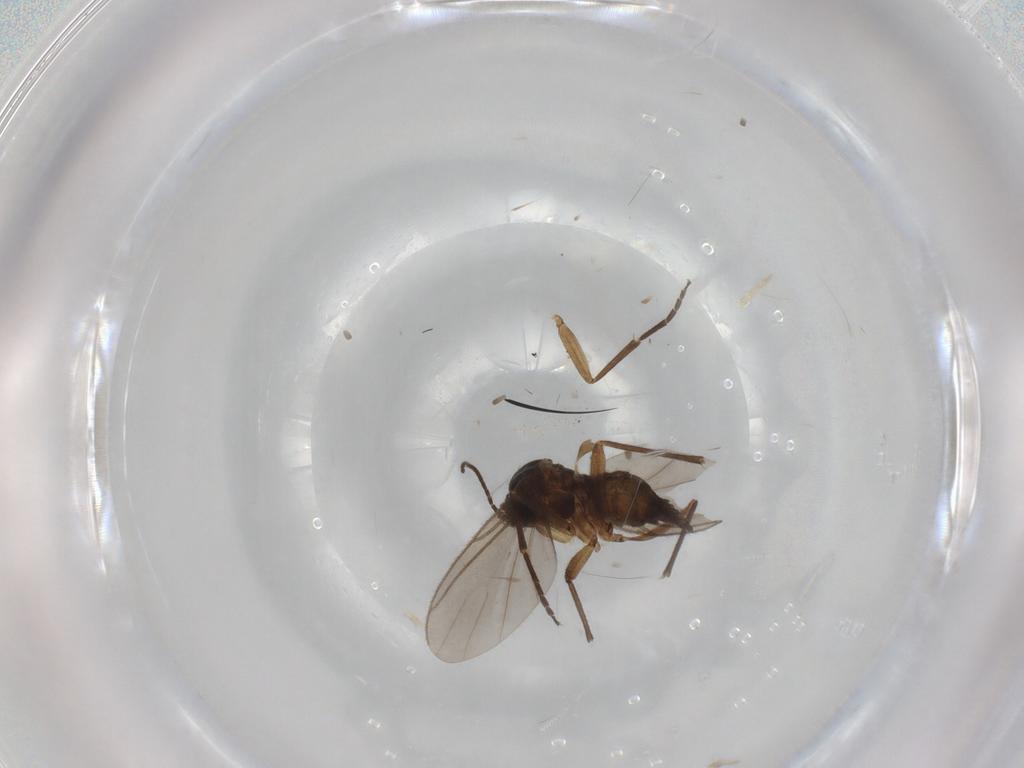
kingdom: Animalia
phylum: Arthropoda
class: Insecta
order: Diptera
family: Sciaridae
